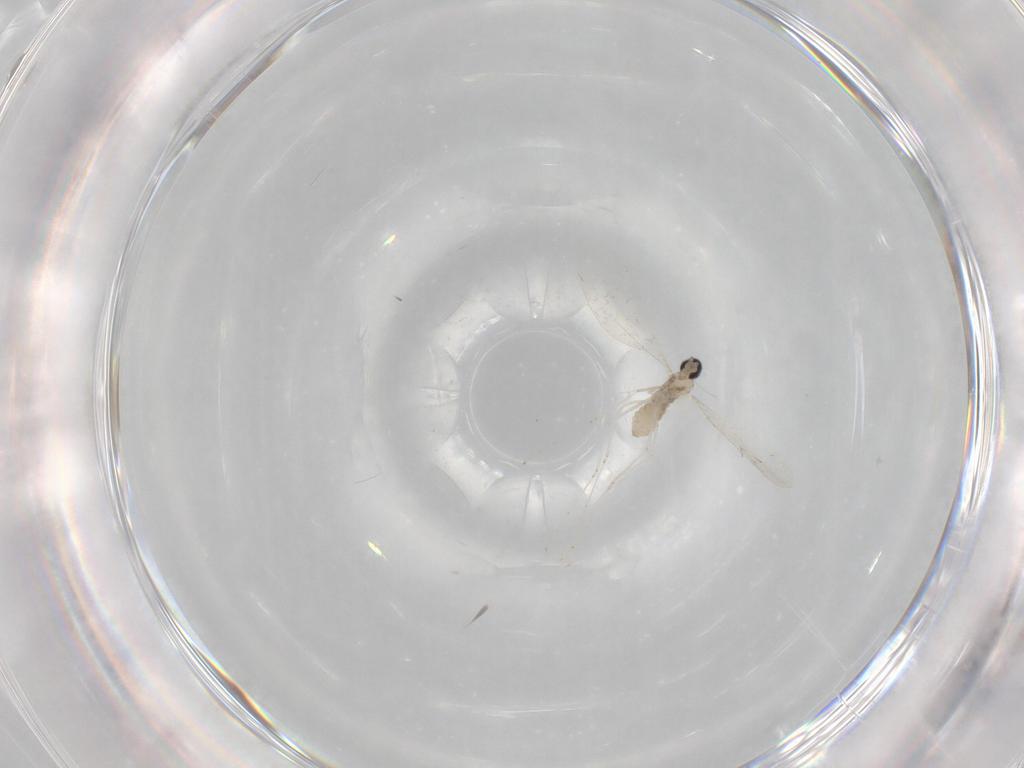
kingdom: Animalia
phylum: Arthropoda
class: Insecta
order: Diptera
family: Cecidomyiidae
